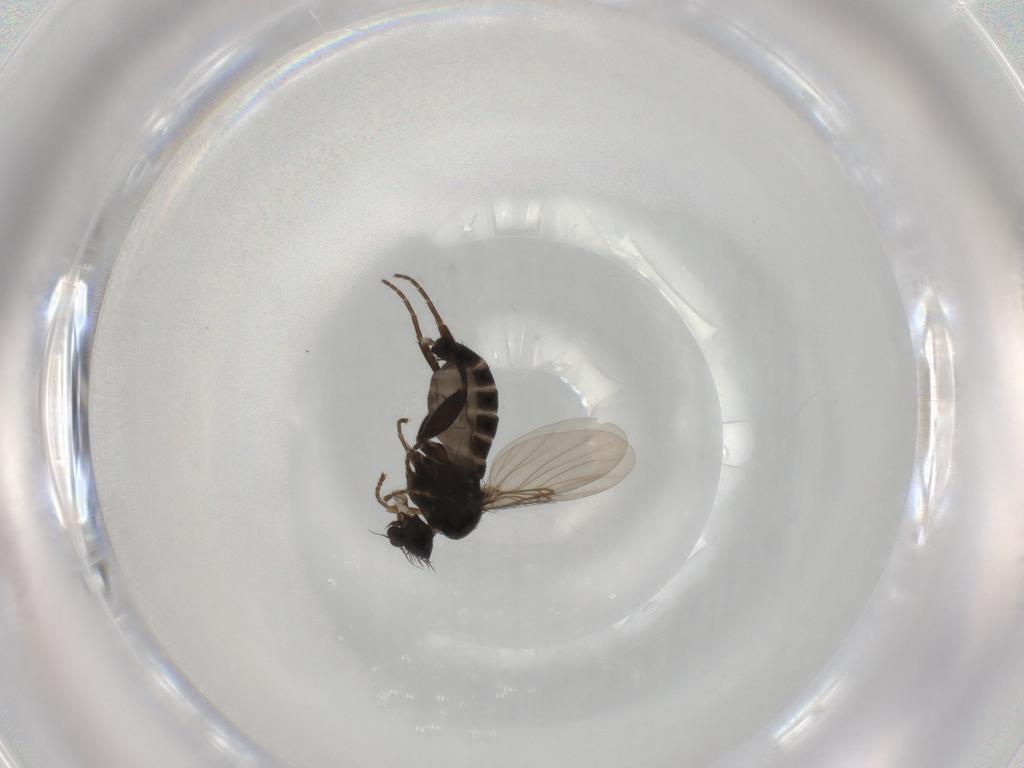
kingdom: Animalia
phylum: Arthropoda
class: Insecta
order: Diptera
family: Phoridae
